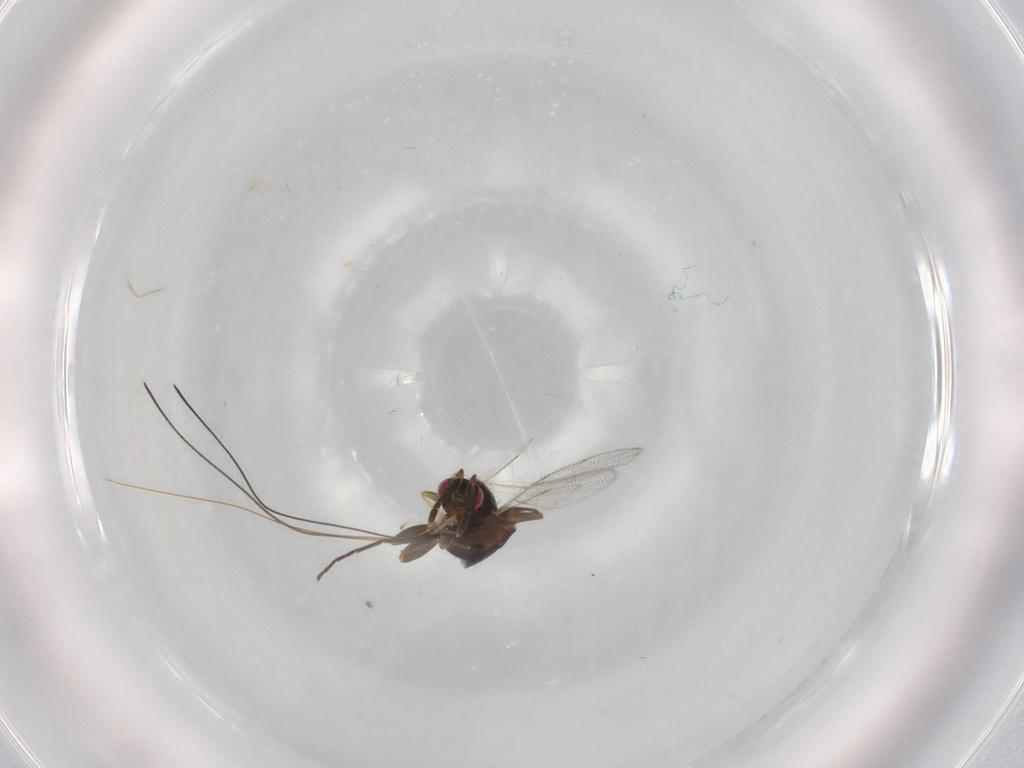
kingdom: Animalia
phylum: Arthropoda
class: Insecta
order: Hymenoptera
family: Torymidae
